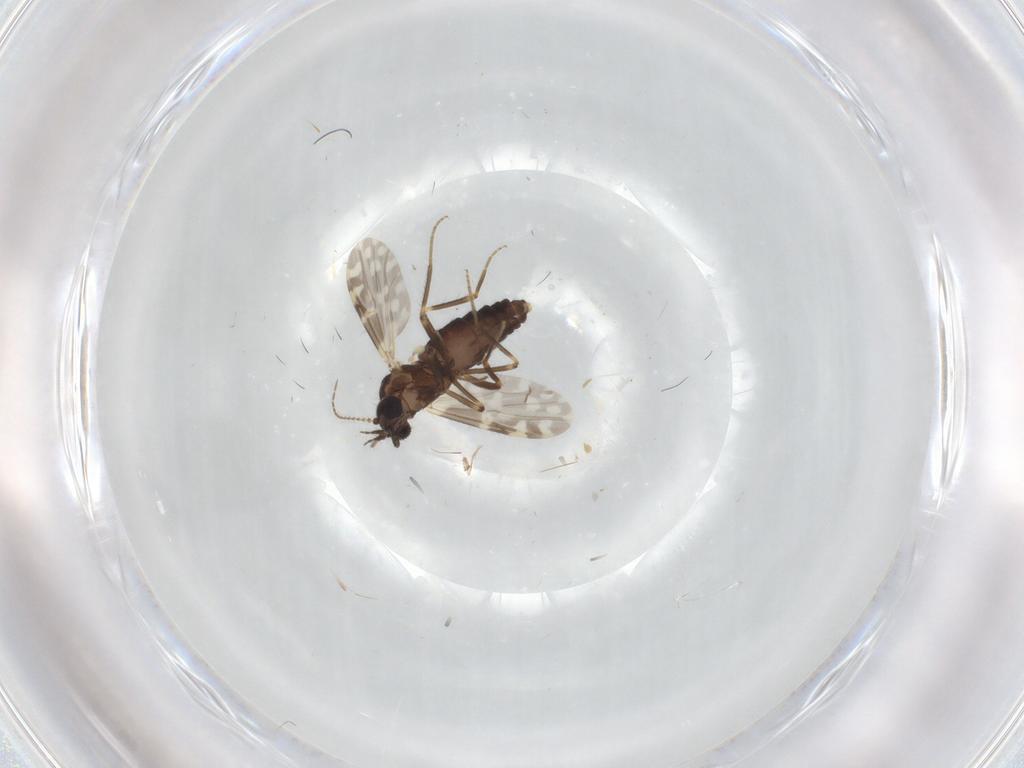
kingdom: Animalia
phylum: Arthropoda
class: Insecta
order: Diptera
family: Ceratopogonidae
